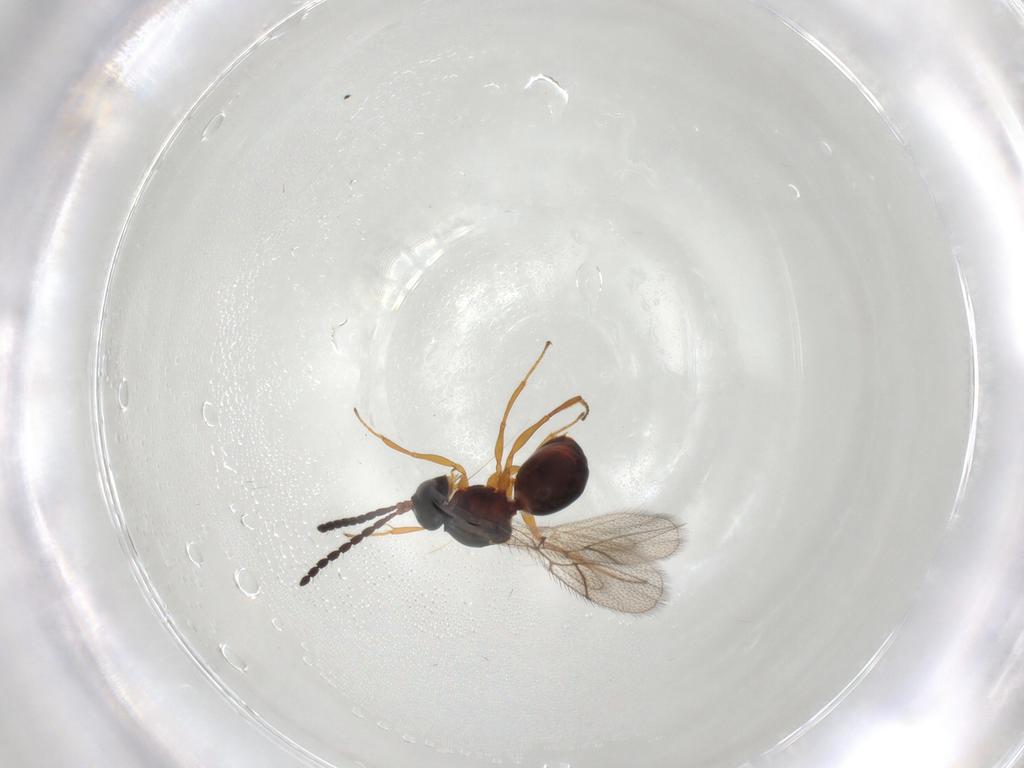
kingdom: Animalia
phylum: Arthropoda
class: Insecta
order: Hymenoptera
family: Figitidae
